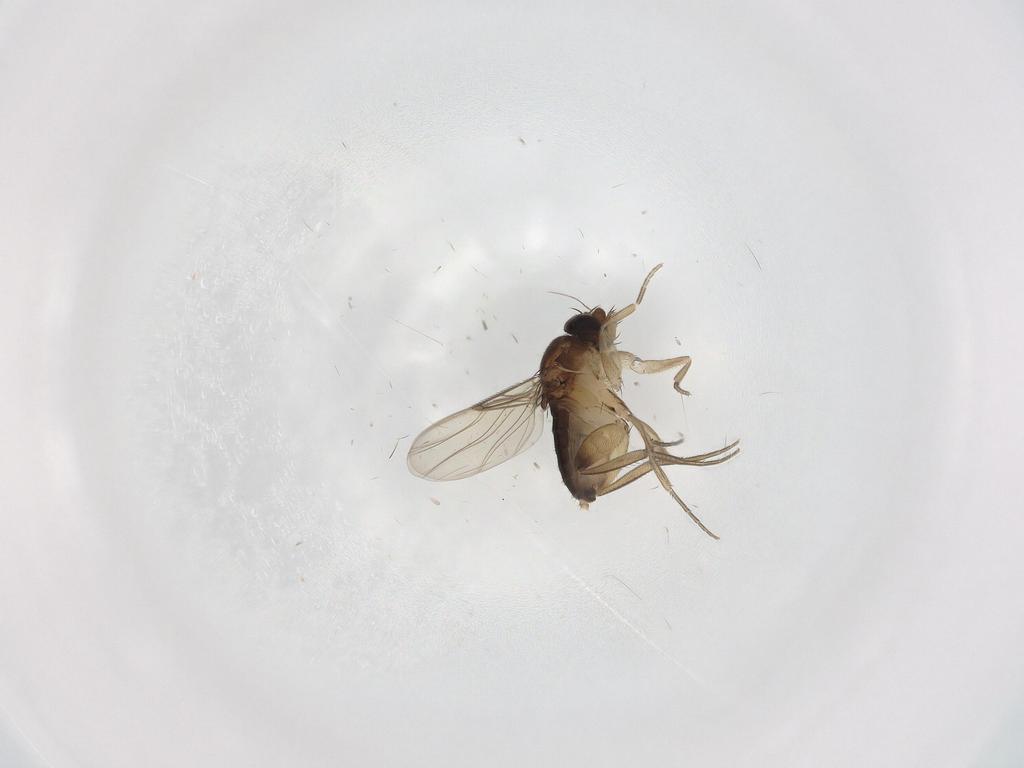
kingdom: Animalia
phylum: Arthropoda
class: Insecta
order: Diptera
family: Phoridae
